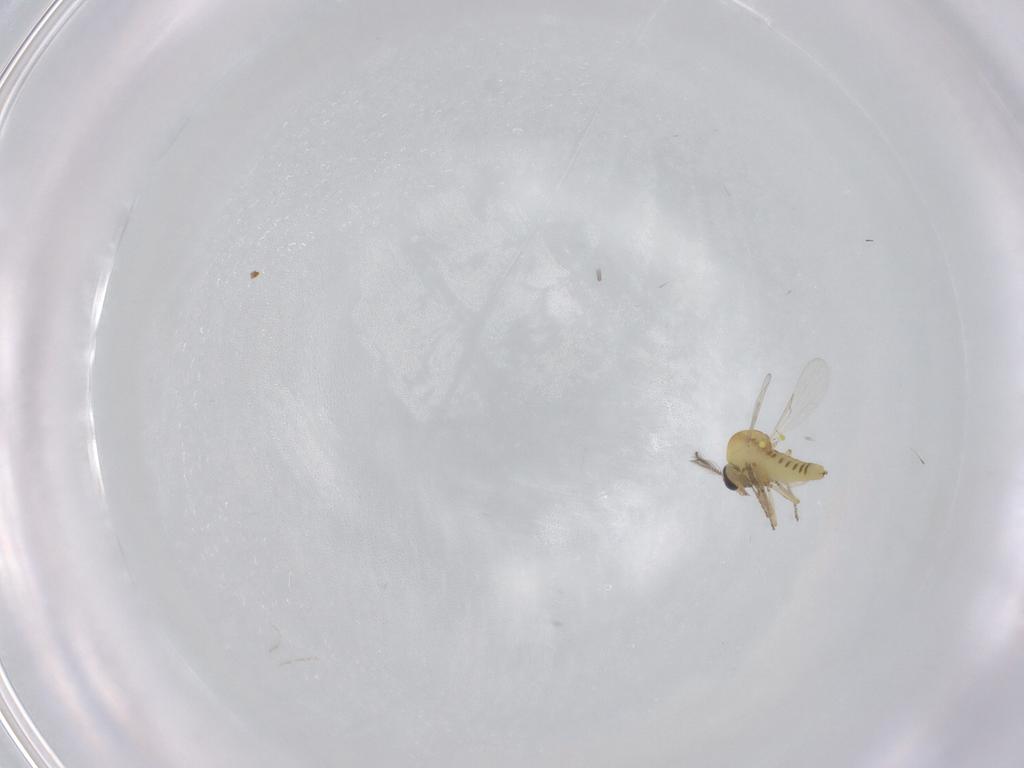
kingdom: Animalia
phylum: Arthropoda
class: Insecta
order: Diptera
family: Ceratopogonidae
